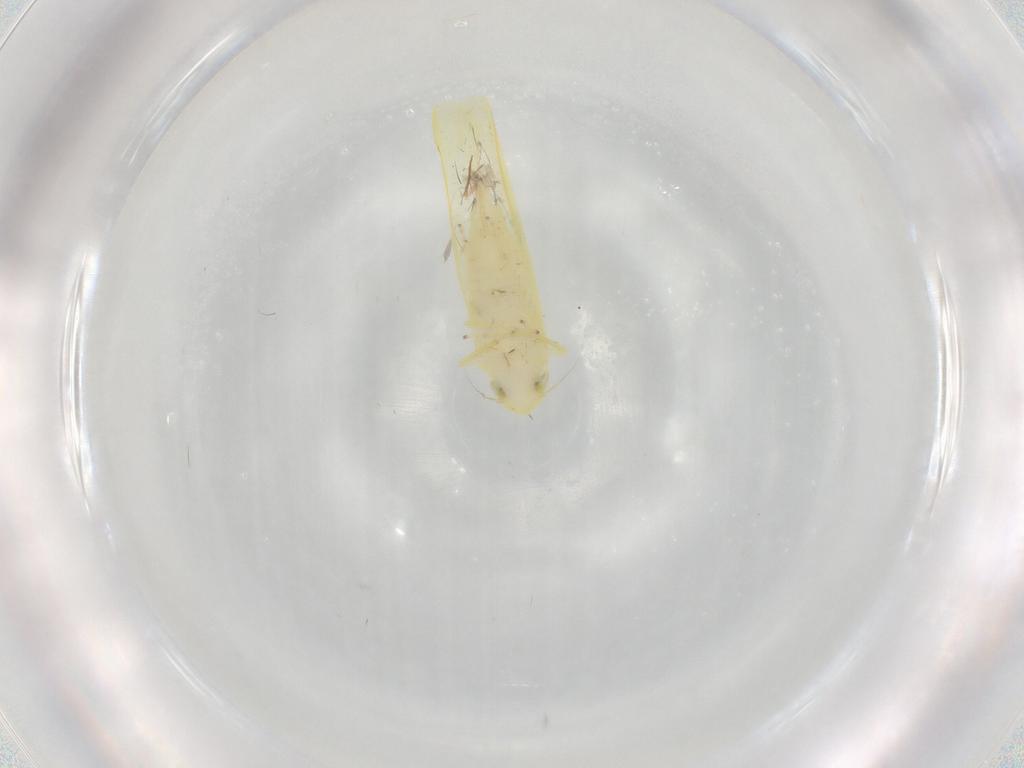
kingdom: Animalia
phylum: Arthropoda
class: Insecta
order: Hemiptera
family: Cicadellidae
